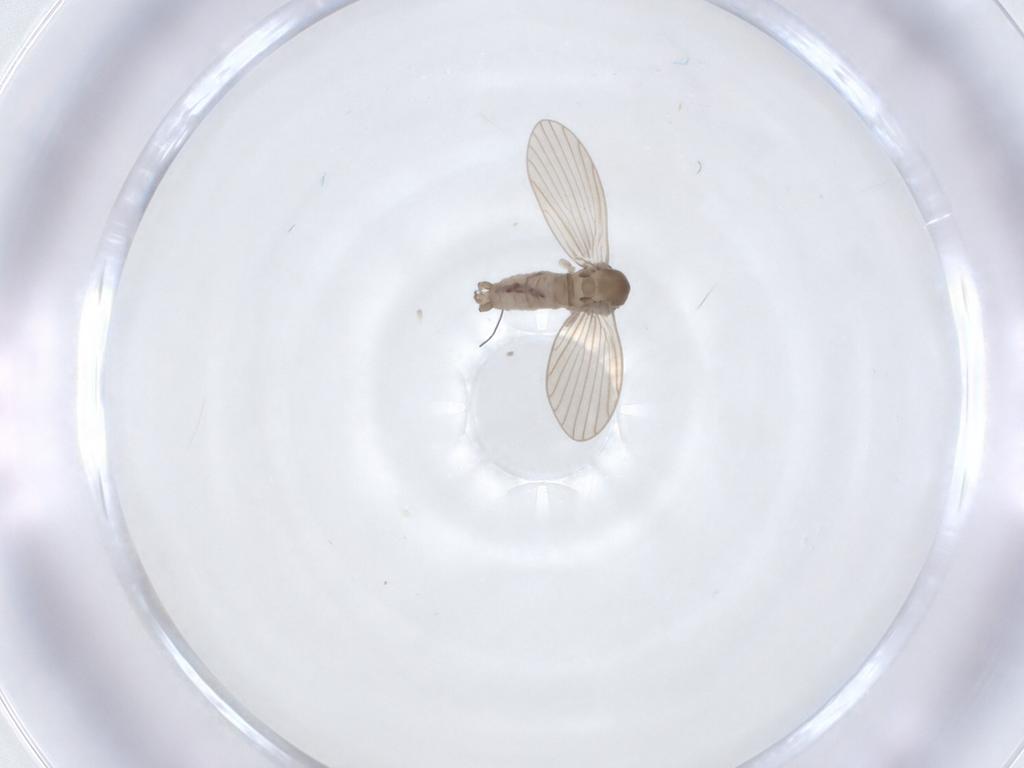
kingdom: Animalia
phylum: Arthropoda
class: Insecta
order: Diptera
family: Psychodidae
